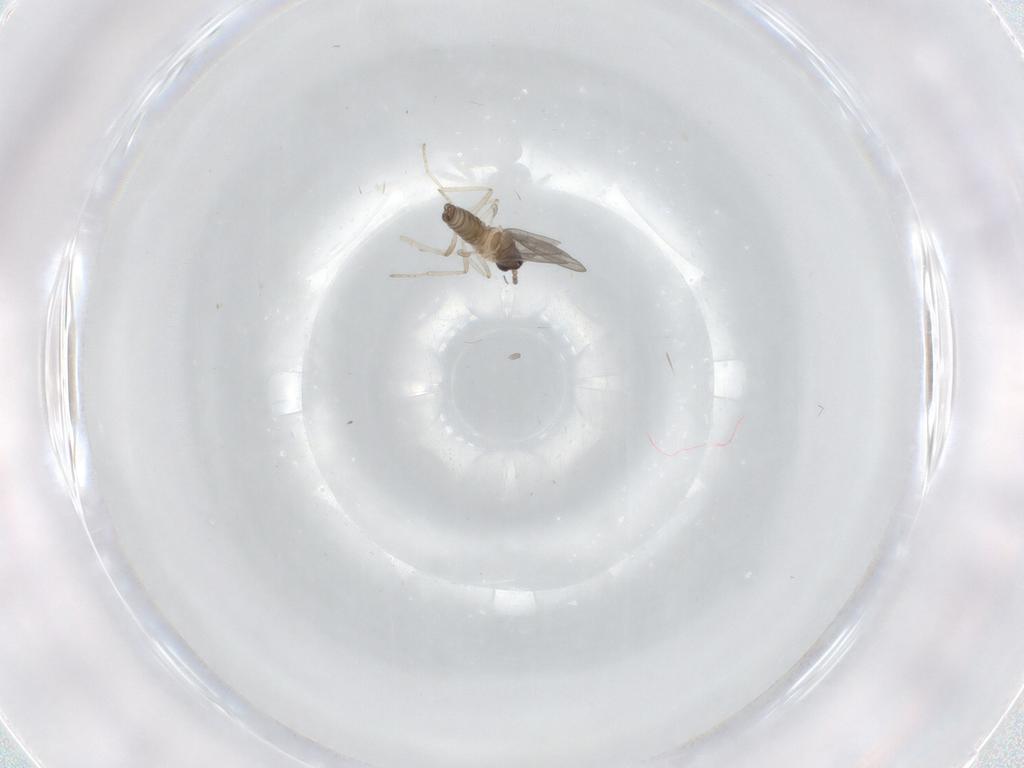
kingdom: Animalia
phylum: Arthropoda
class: Insecta
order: Diptera
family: Cecidomyiidae
